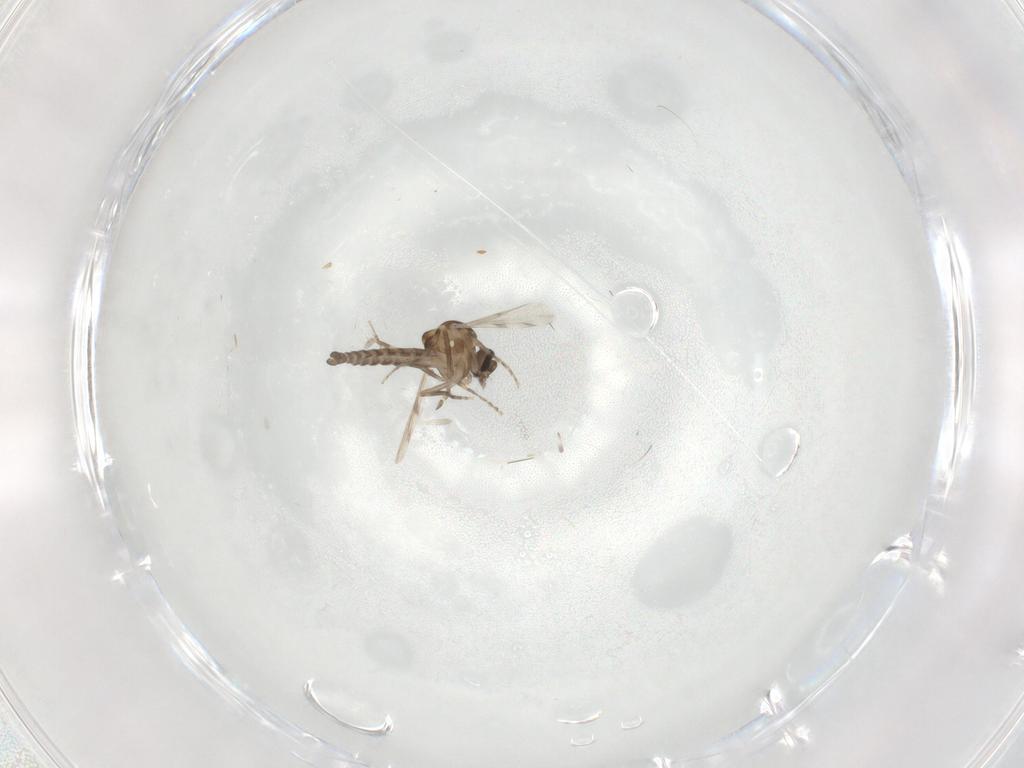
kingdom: Animalia
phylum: Arthropoda
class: Insecta
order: Diptera
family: Ceratopogonidae
